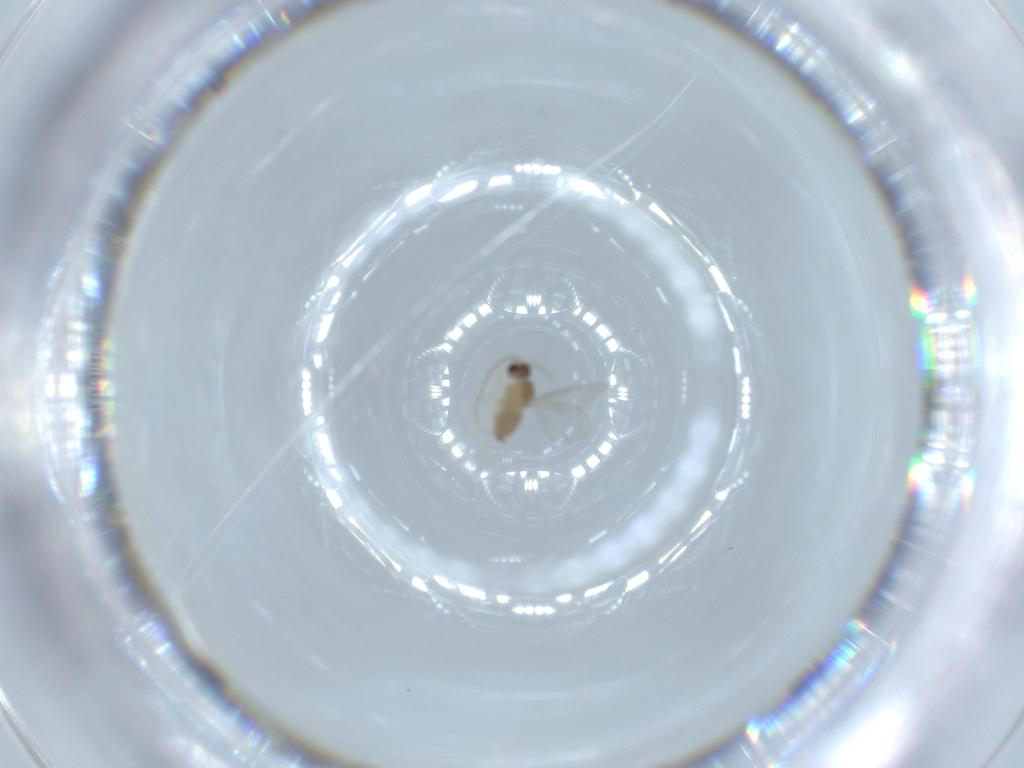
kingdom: Animalia
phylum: Arthropoda
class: Insecta
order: Diptera
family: Cecidomyiidae
